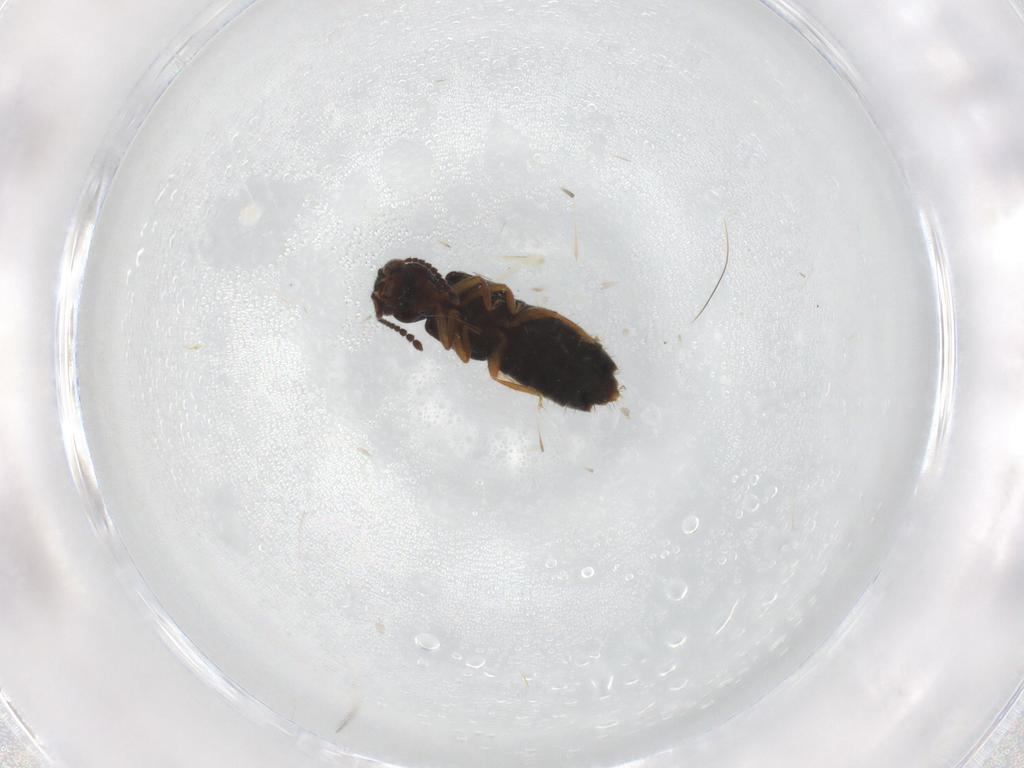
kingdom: Animalia
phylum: Arthropoda
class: Insecta
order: Coleoptera
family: Staphylinidae
